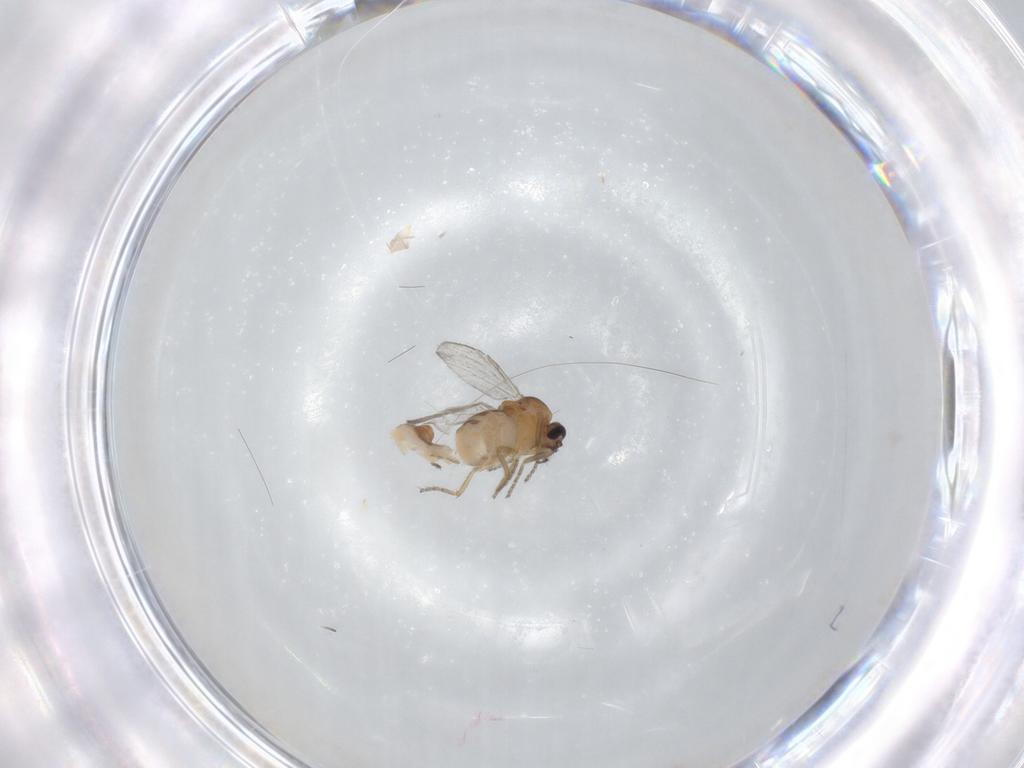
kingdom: Animalia
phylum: Arthropoda
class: Insecta
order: Diptera
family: Ceratopogonidae
